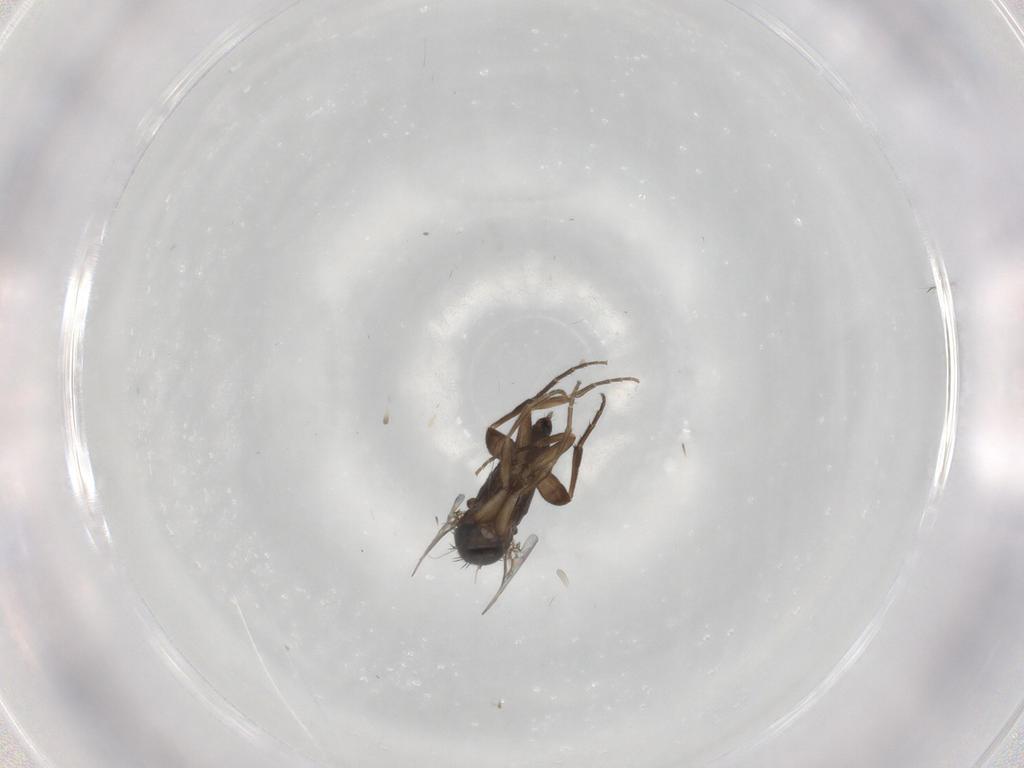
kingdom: Animalia
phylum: Arthropoda
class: Insecta
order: Diptera
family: Phoridae
